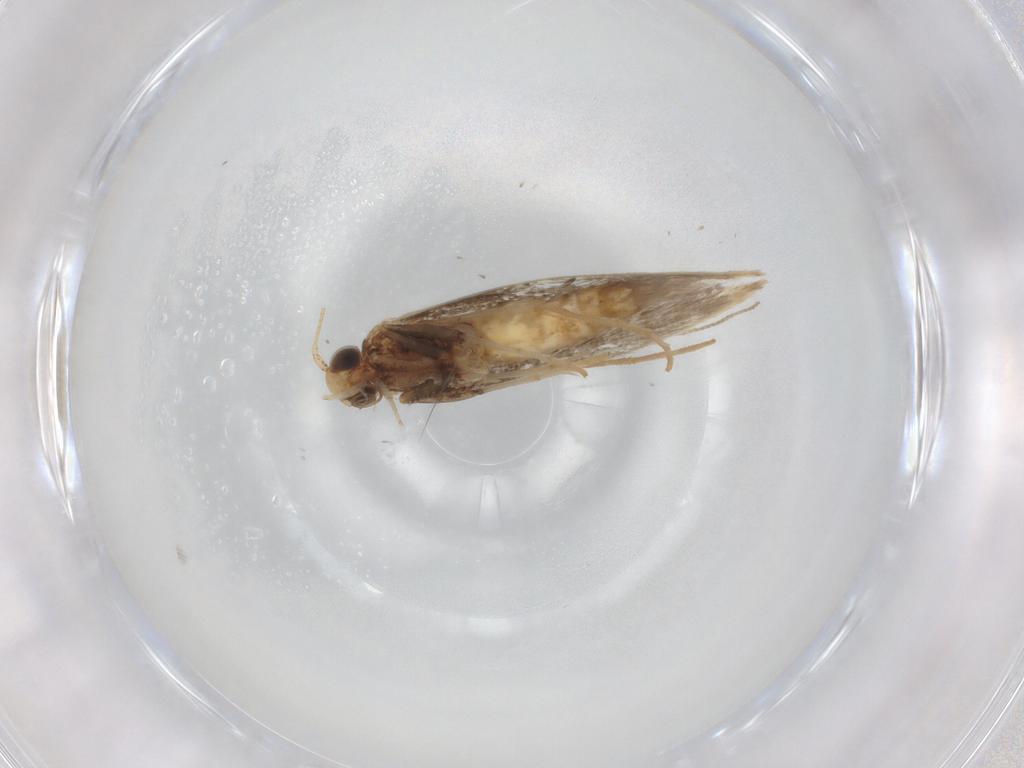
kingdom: Animalia
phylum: Arthropoda
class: Insecta
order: Lepidoptera
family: Gracillariidae
